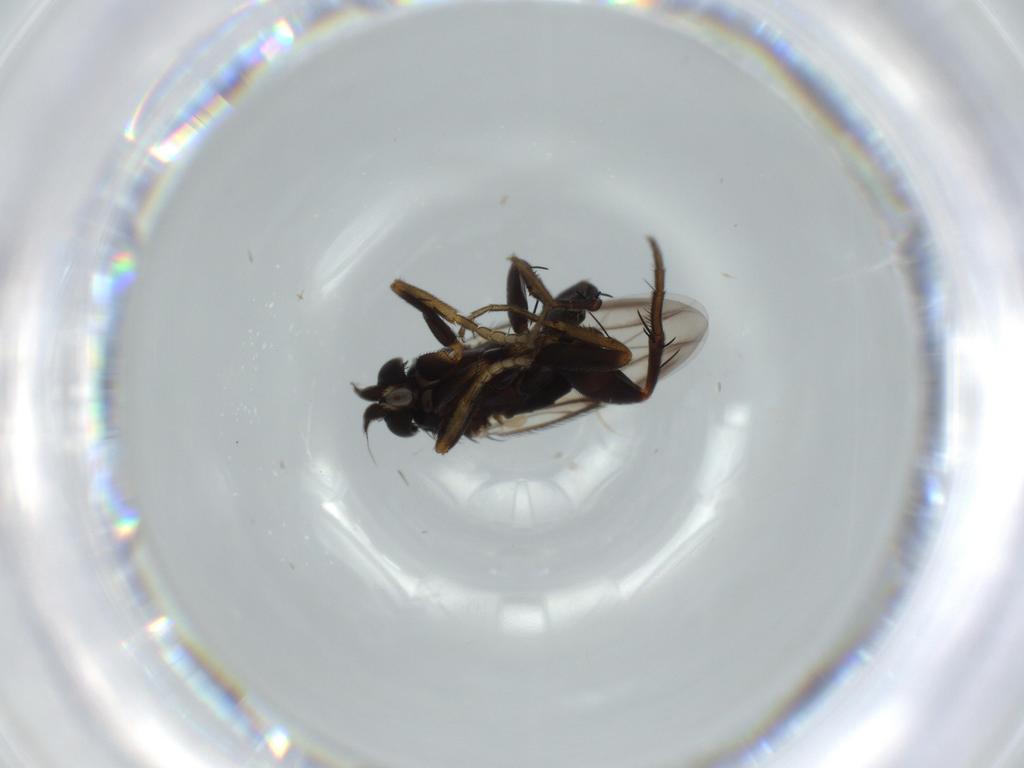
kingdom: Animalia
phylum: Arthropoda
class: Insecta
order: Diptera
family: Phoridae
